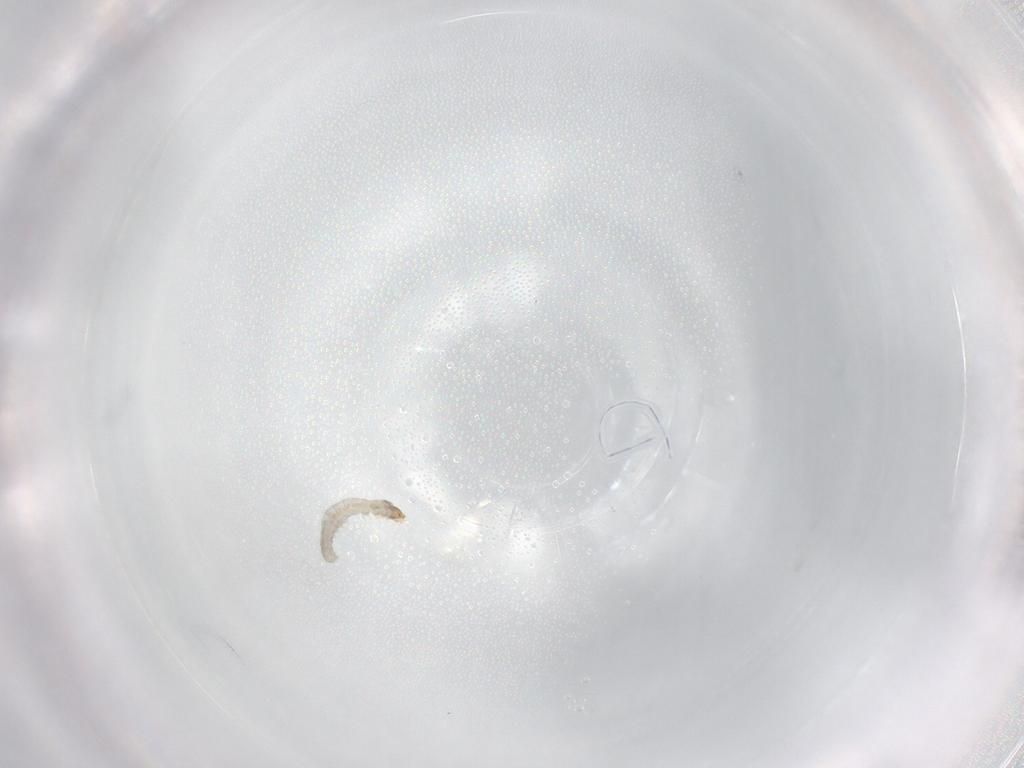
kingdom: Animalia
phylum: Arthropoda
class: Insecta
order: Lepidoptera
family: Tineidae
